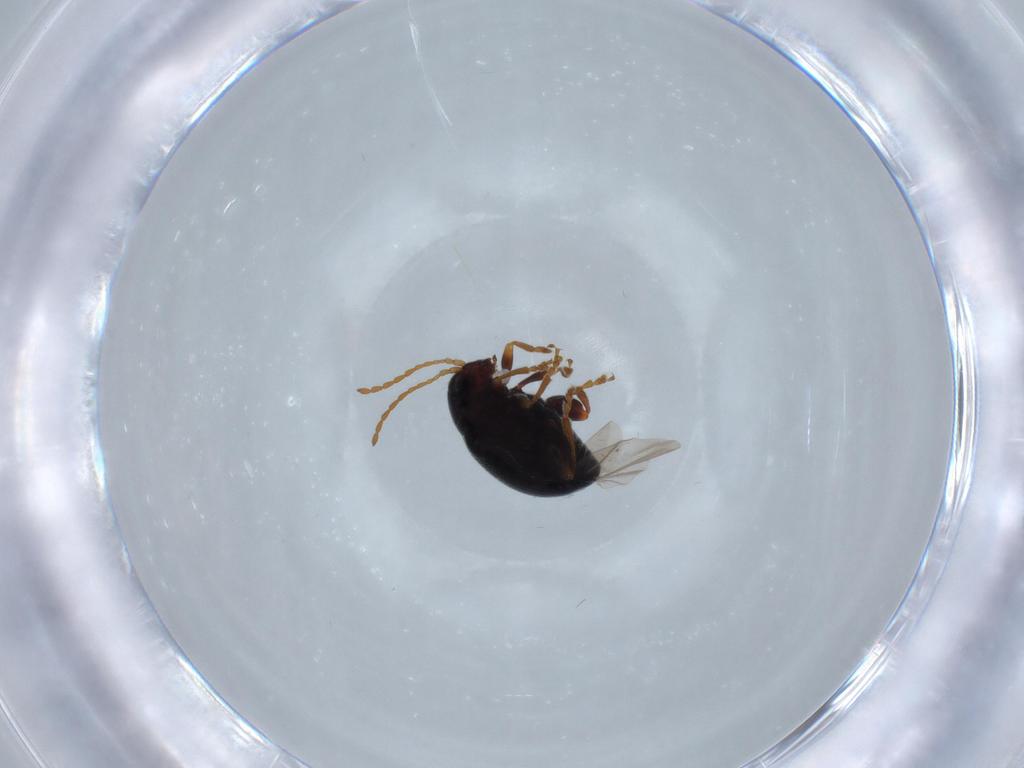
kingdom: Animalia
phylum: Arthropoda
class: Insecta
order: Coleoptera
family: Curculionidae
